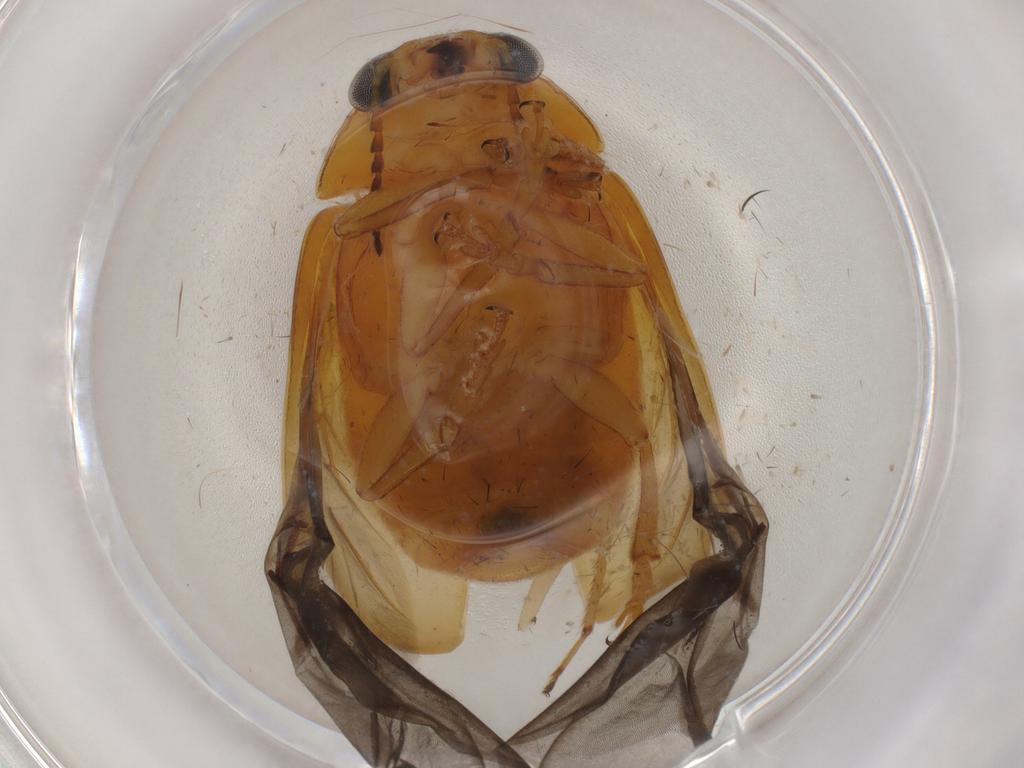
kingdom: Animalia
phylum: Arthropoda
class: Insecta
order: Coleoptera
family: Chrysomelidae
